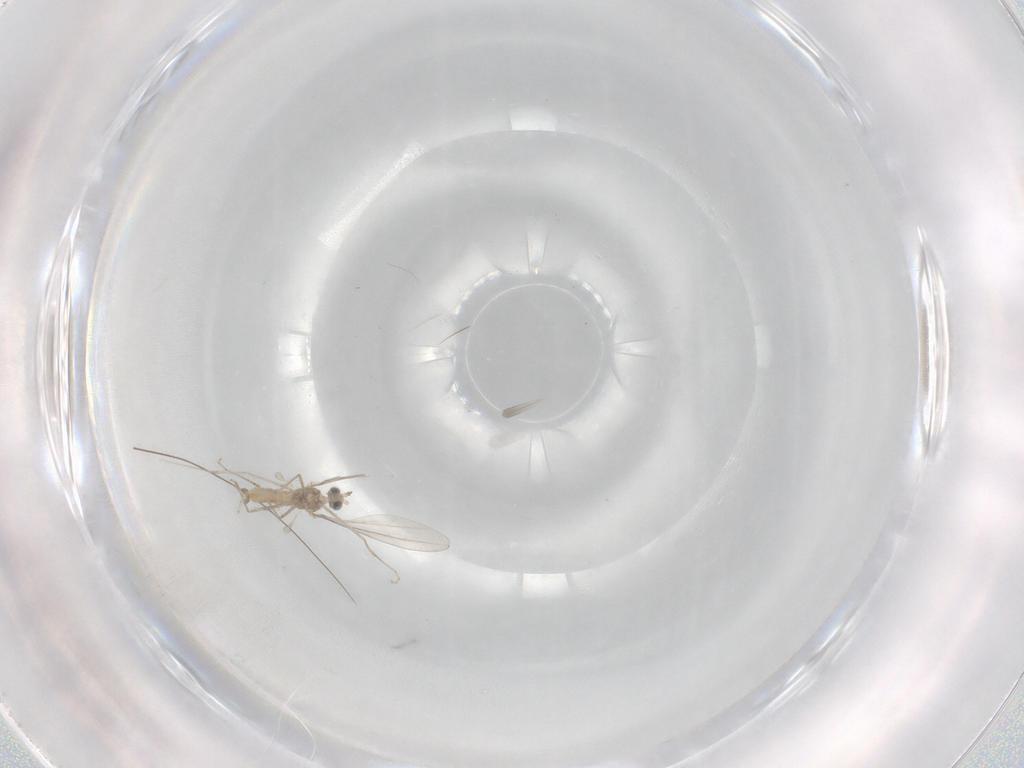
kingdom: Animalia
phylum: Arthropoda
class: Insecta
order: Diptera
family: Cecidomyiidae
